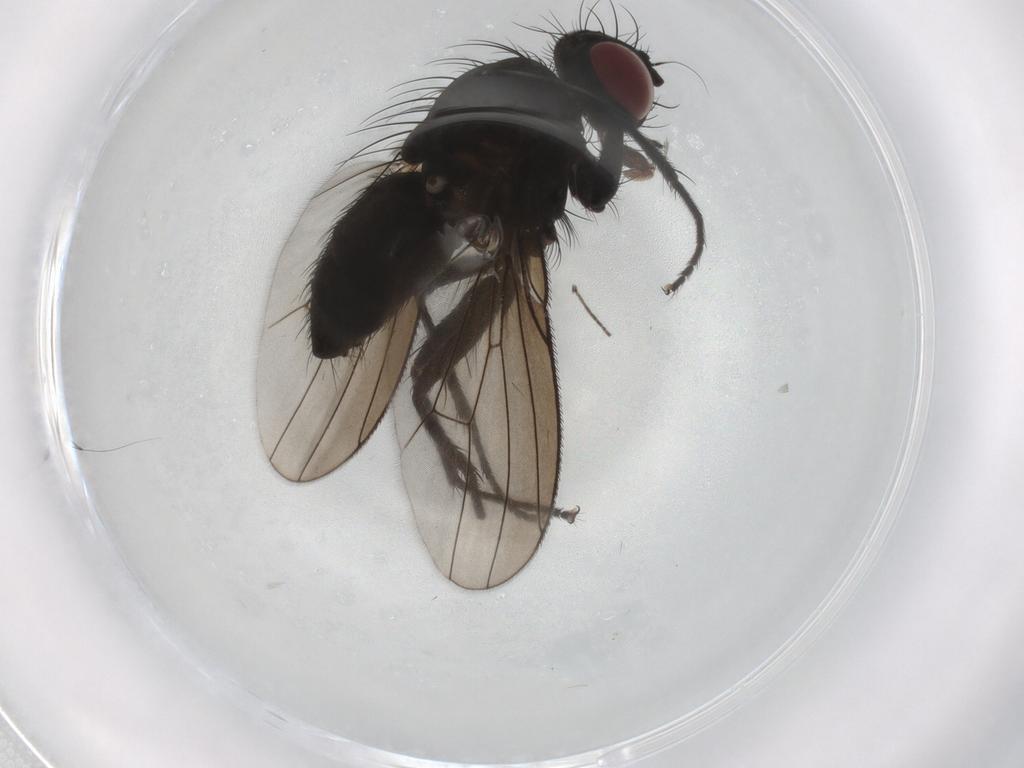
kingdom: Animalia
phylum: Arthropoda
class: Insecta
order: Diptera
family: Muscidae
